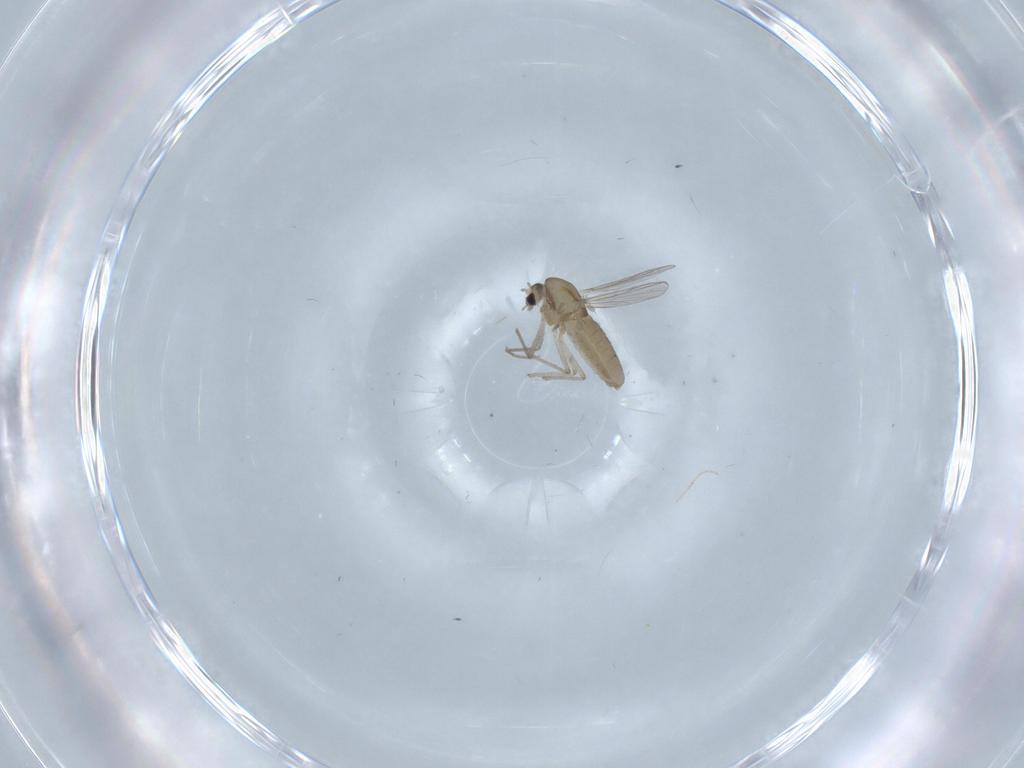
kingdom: Animalia
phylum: Arthropoda
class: Insecta
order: Diptera
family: Chironomidae
